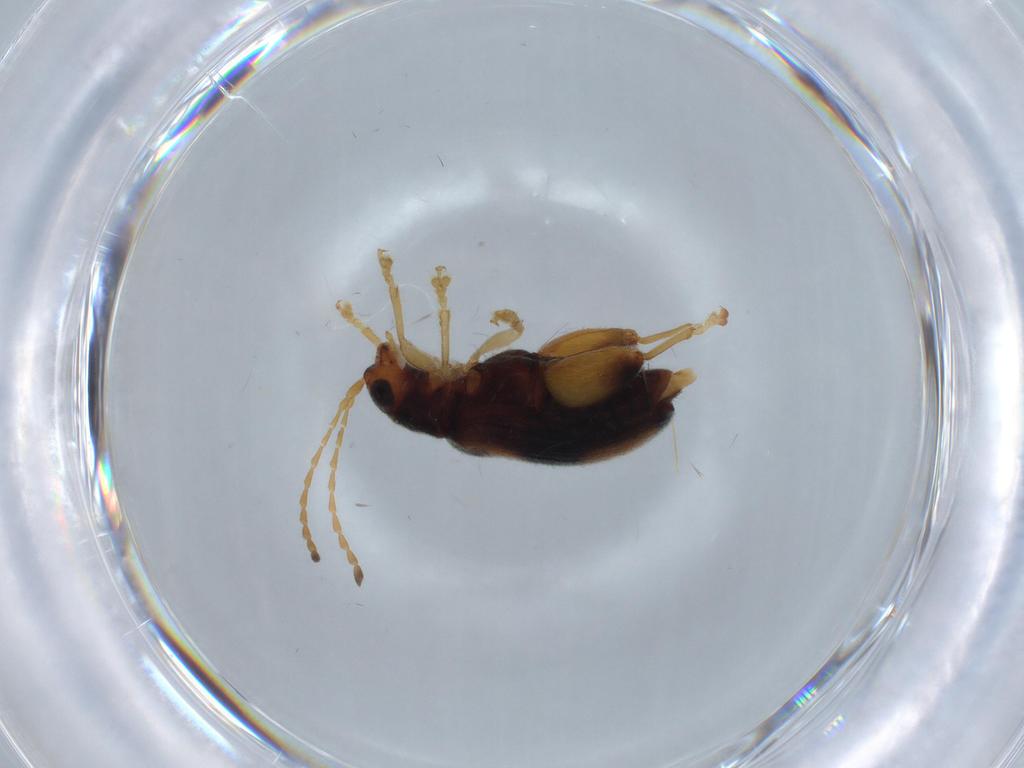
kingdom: Animalia
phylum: Arthropoda
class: Insecta
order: Coleoptera
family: Chrysomelidae
